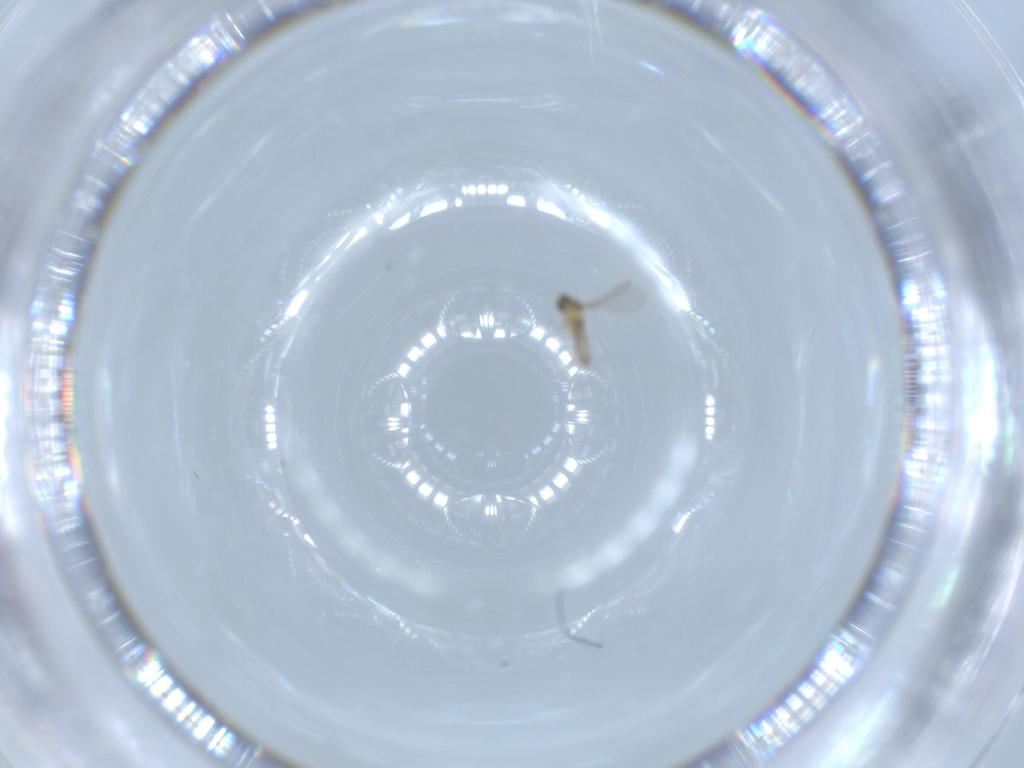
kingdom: Animalia
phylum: Arthropoda
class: Insecta
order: Diptera
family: Cecidomyiidae
